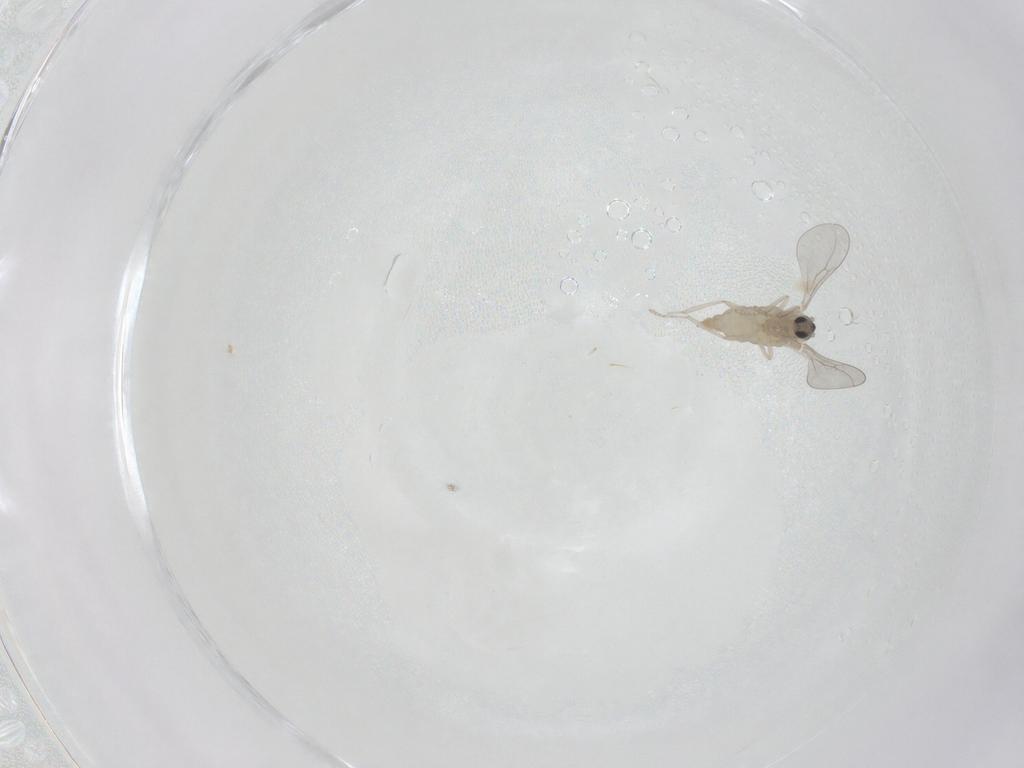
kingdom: Animalia
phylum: Arthropoda
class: Insecta
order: Diptera
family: Cecidomyiidae
